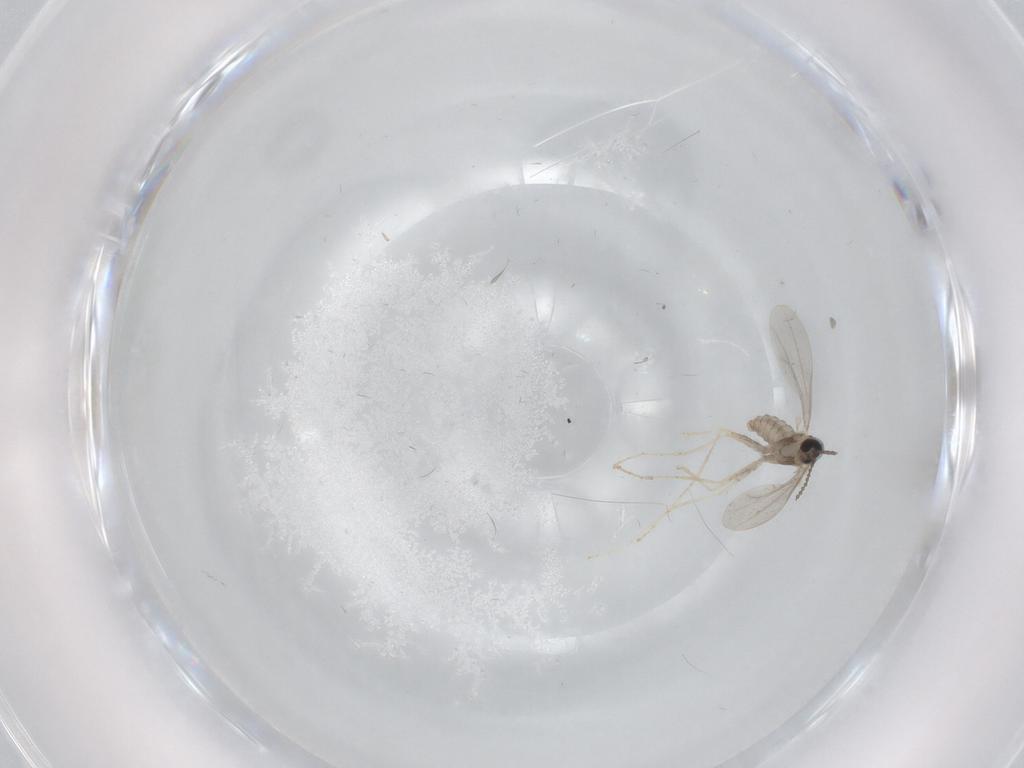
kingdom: Animalia
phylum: Arthropoda
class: Insecta
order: Diptera
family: Cecidomyiidae
